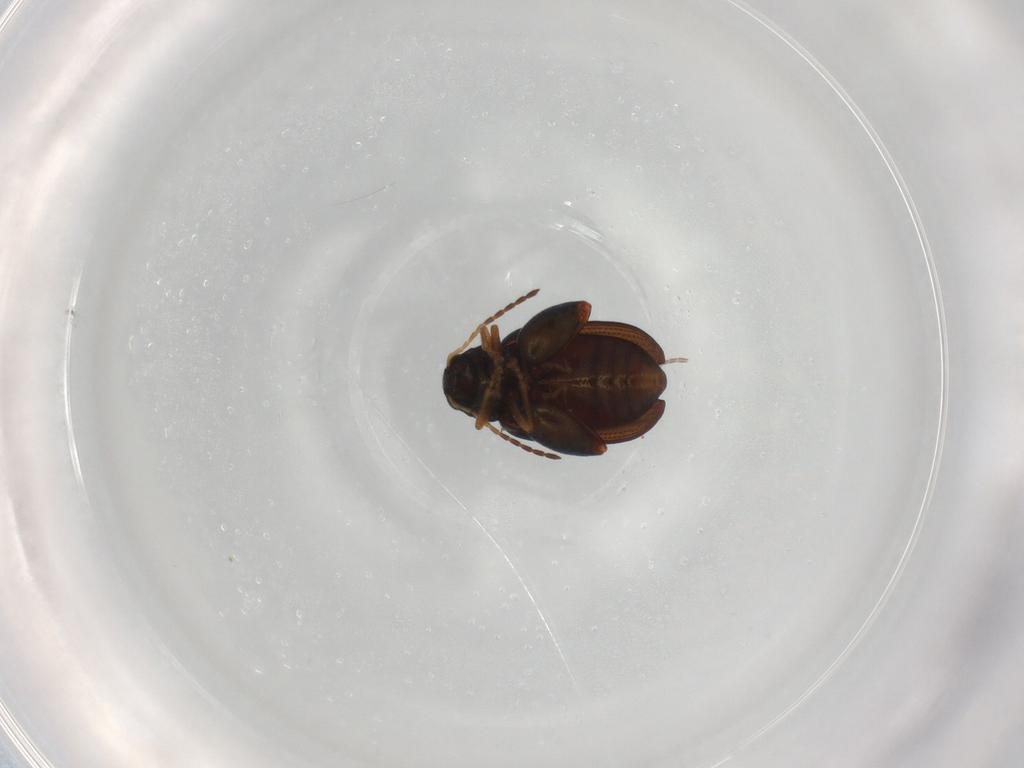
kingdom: Animalia
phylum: Arthropoda
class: Insecta
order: Coleoptera
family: Chrysomelidae
